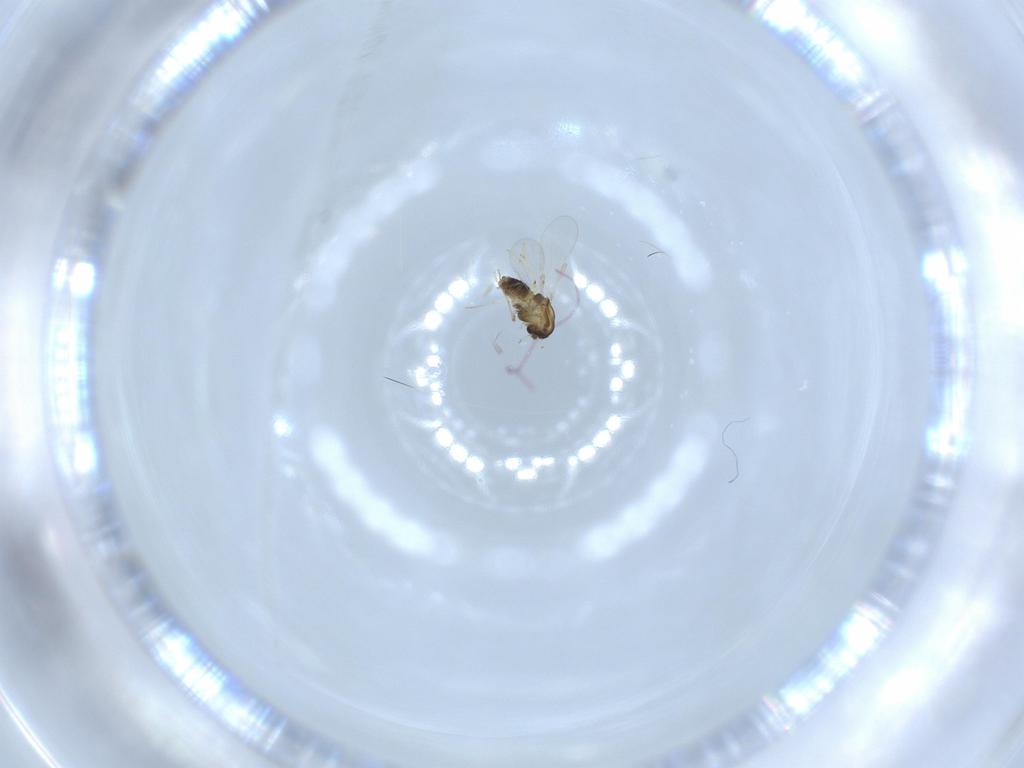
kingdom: Animalia
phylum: Arthropoda
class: Insecta
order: Diptera
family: Chironomidae
